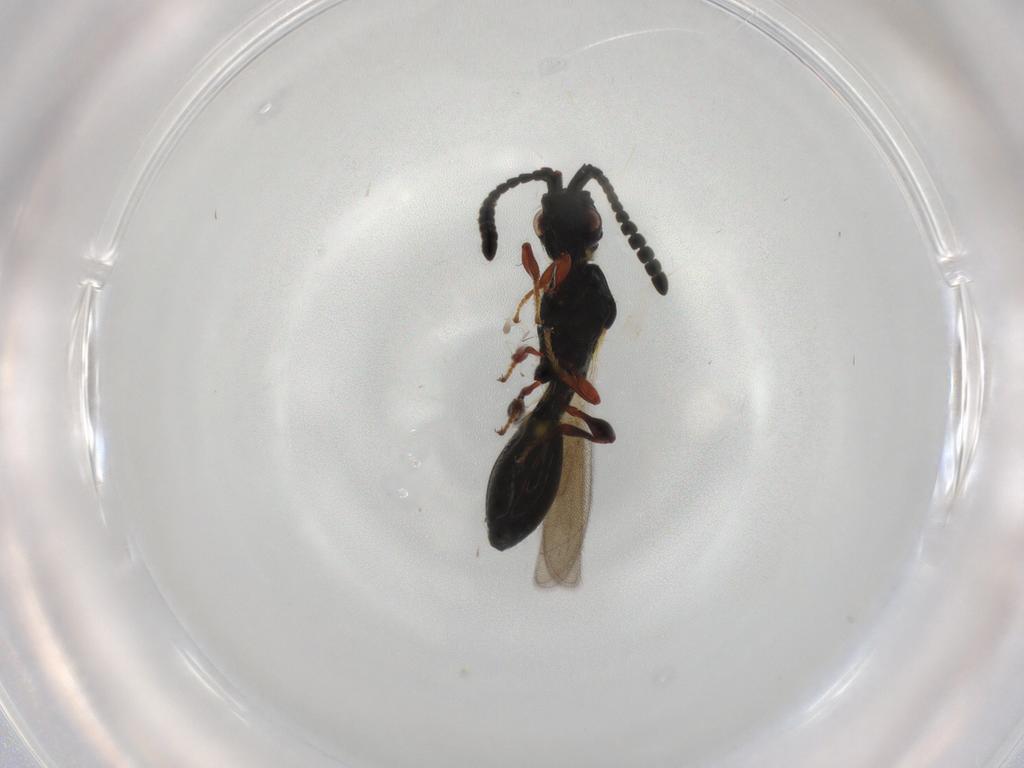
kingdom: Animalia
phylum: Arthropoda
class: Insecta
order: Hymenoptera
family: Diapriidae
